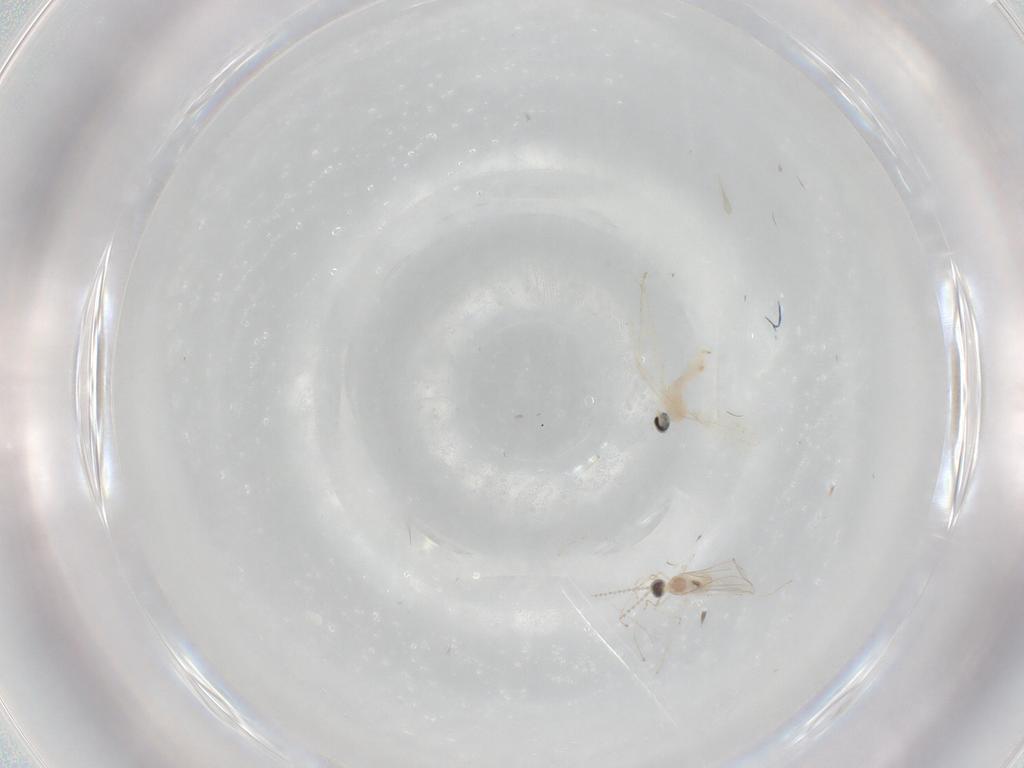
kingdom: Animalia
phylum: Arthropoda
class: Insecta
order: Diptera
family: Cecidomyiidae
